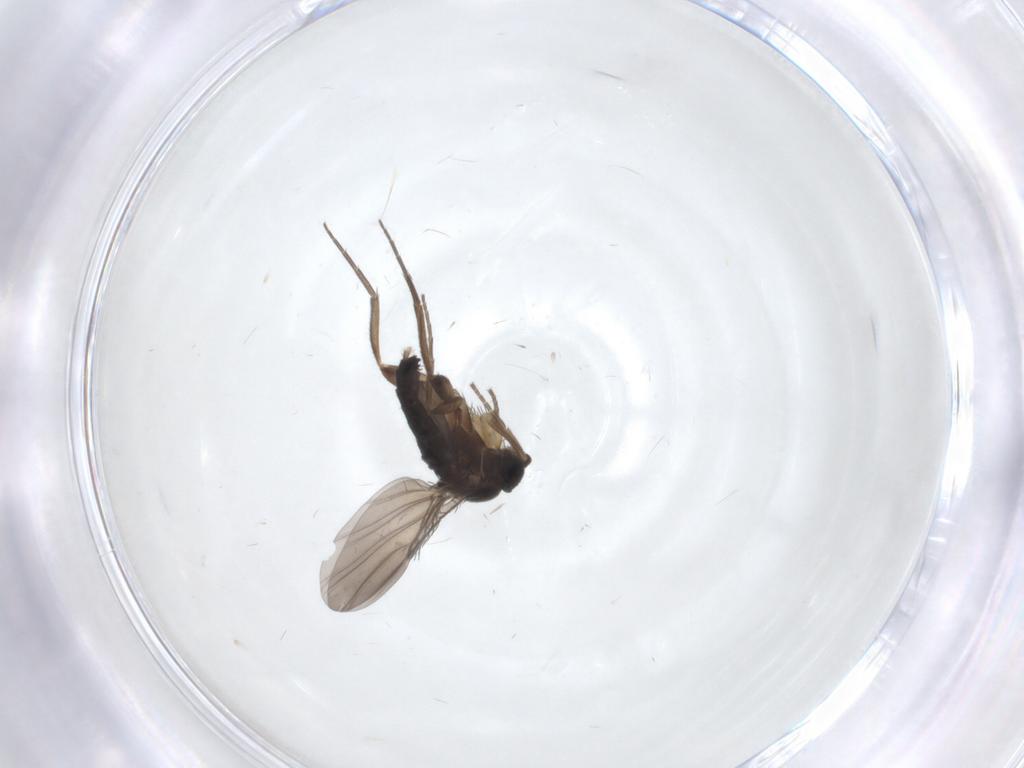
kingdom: Animalia
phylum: Arthropoda
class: Insecta
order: Diptera
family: Phoridae
